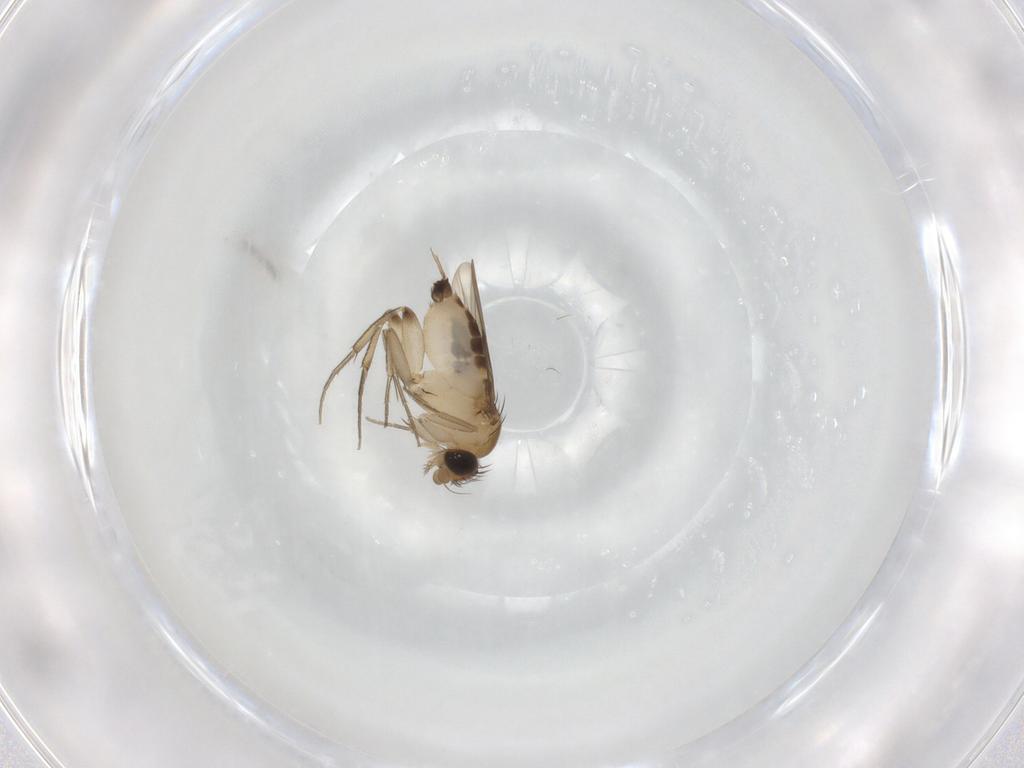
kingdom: Animalia
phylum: Arthropoda
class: Insecta
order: Diptera
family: Phoridae
